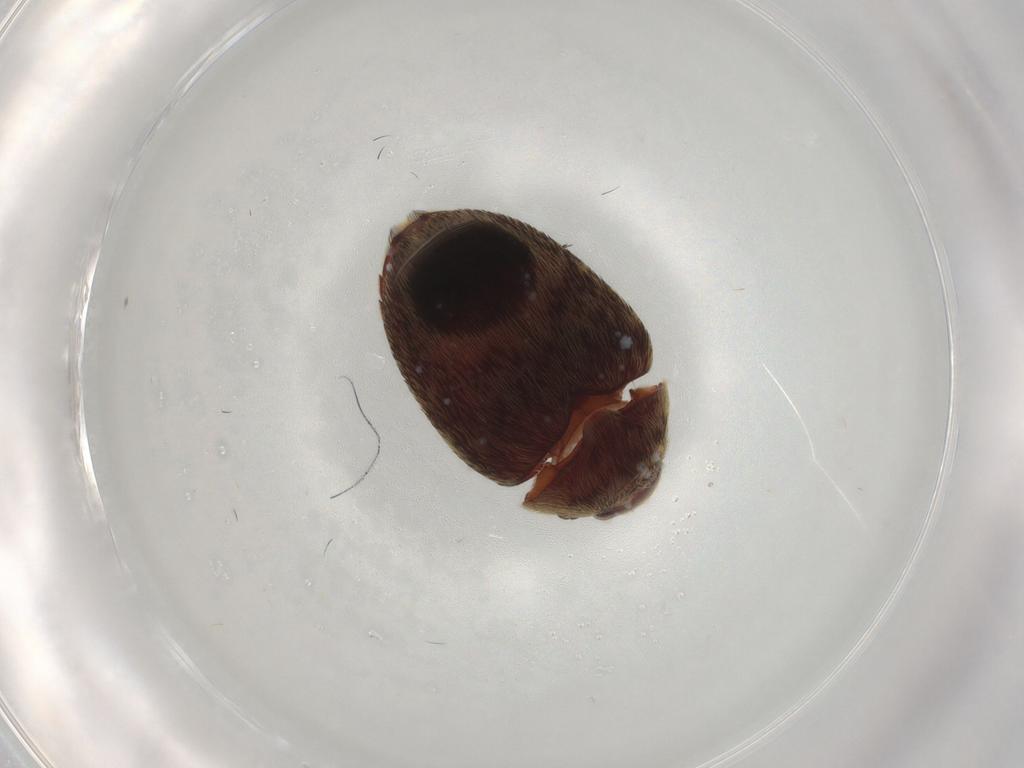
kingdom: Animalia
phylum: Arthropoda
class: Insecta
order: Coleoptera
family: Dermestidae
